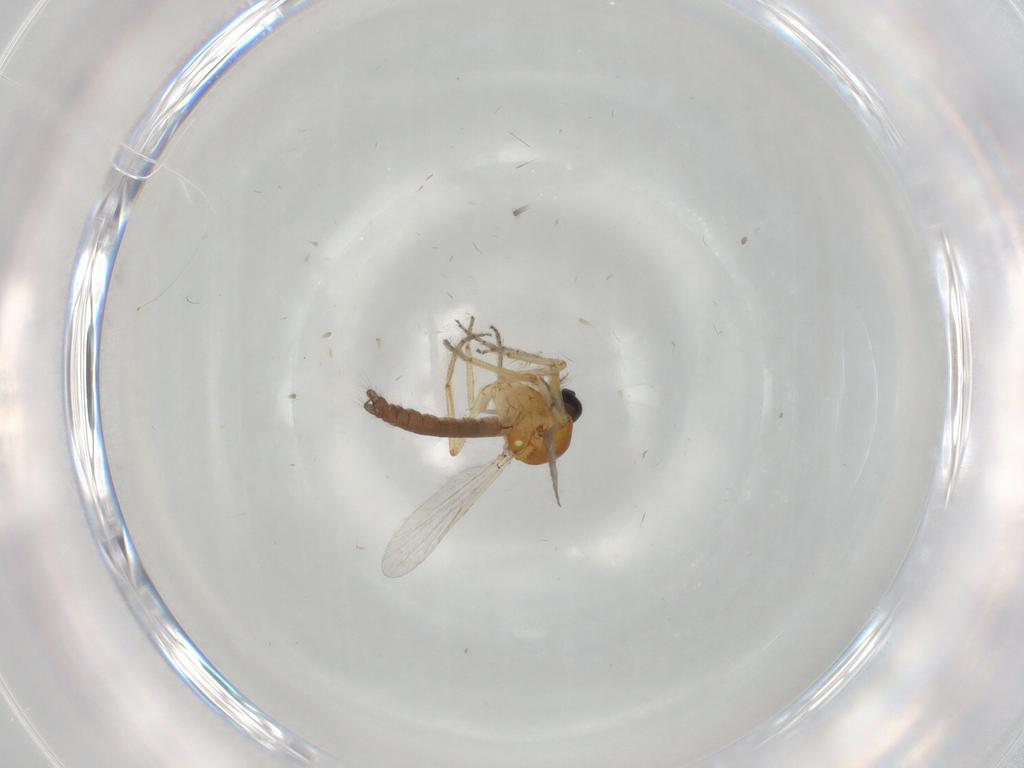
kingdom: Animalia
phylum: Arthropoda
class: Insecta
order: Diptera
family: Ceratopogonidae
